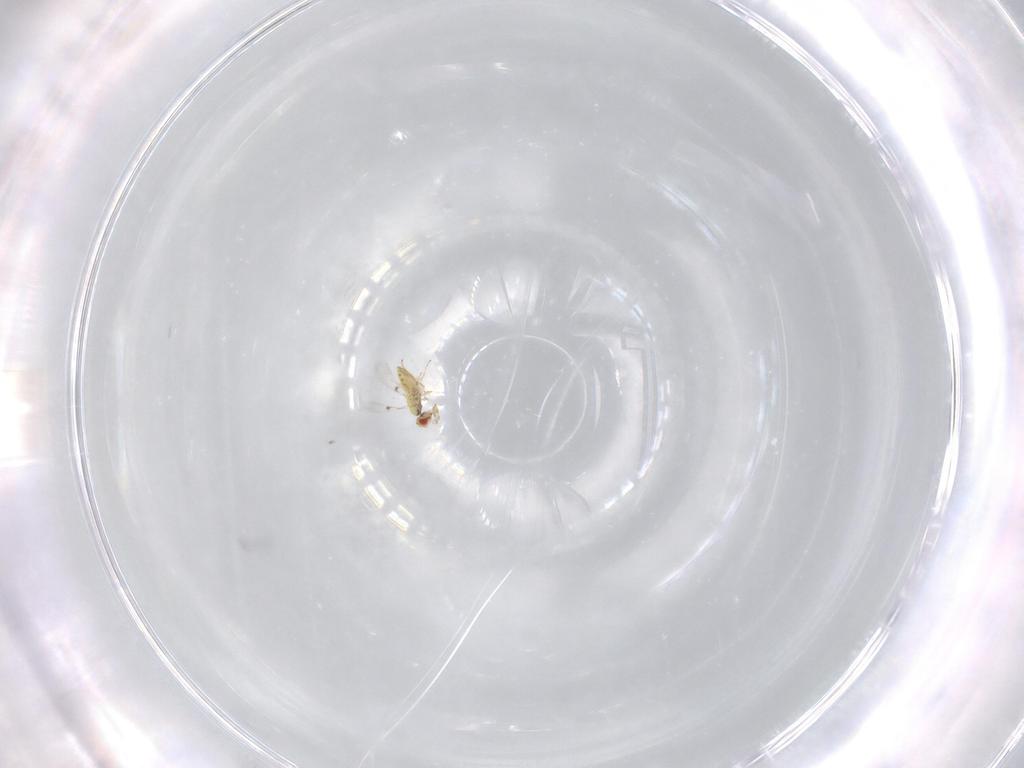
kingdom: Animalia
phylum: Arthropoda
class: Insecta
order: Hymenoptera
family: Trichogrammatidae
